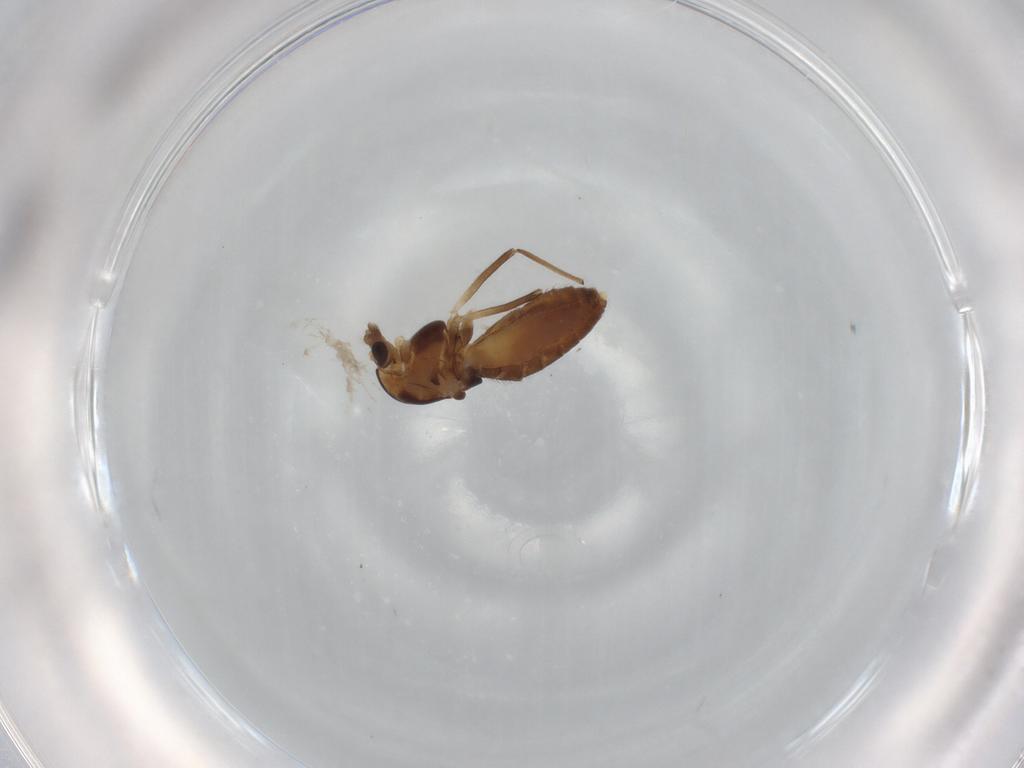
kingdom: Animalia
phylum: Arthropoda
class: Insecta
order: Diptera
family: Chironomidae
